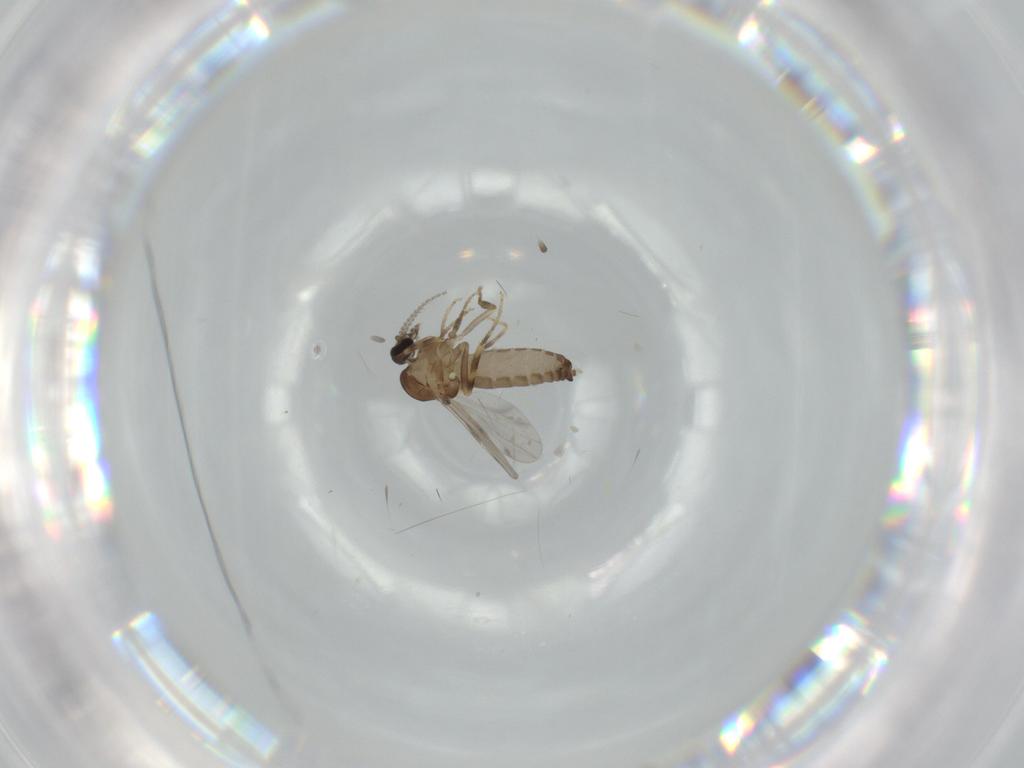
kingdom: Animalia
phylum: Arthropoda
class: Insecta
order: Diptera
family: Ceratopogonidae
